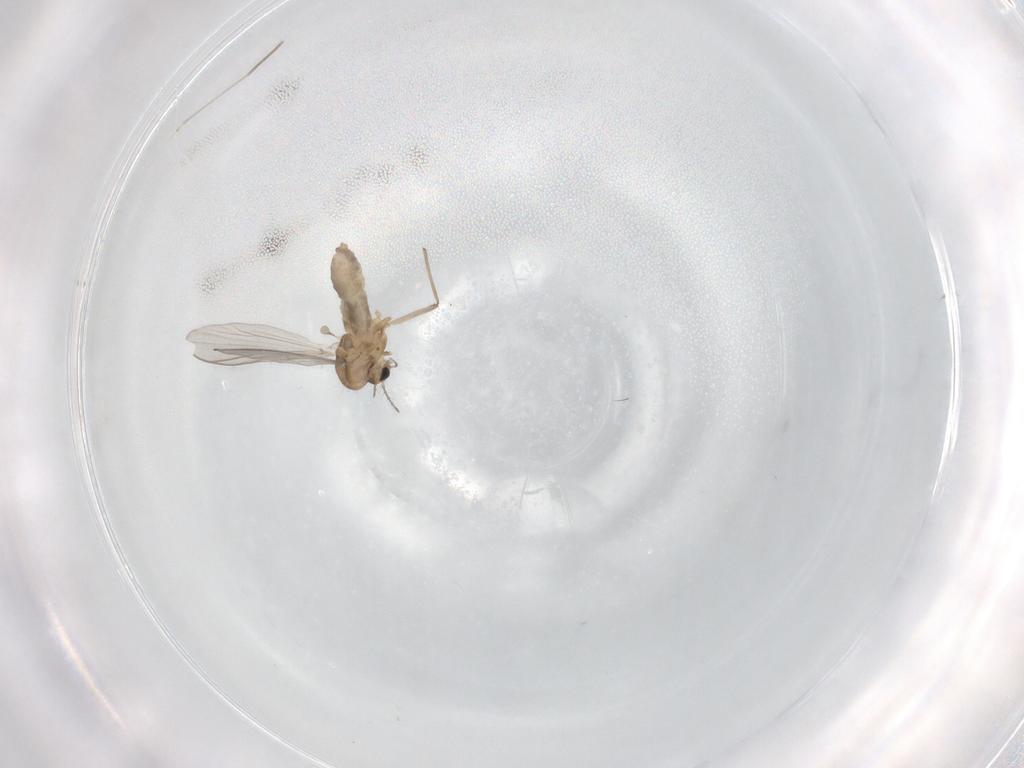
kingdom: Animalia
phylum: Arthropoda
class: Insecta
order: Diptera
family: Chironomidae
